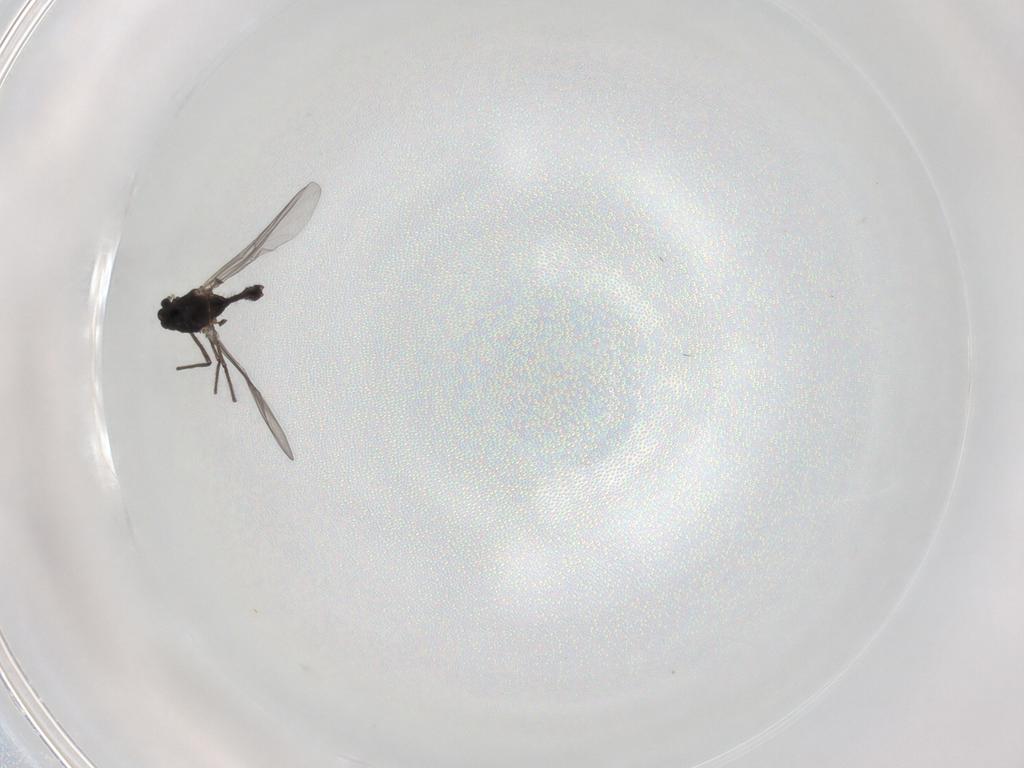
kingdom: Animalia
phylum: Arthropoda
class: Insecta
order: Diptera
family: Chironomidae
